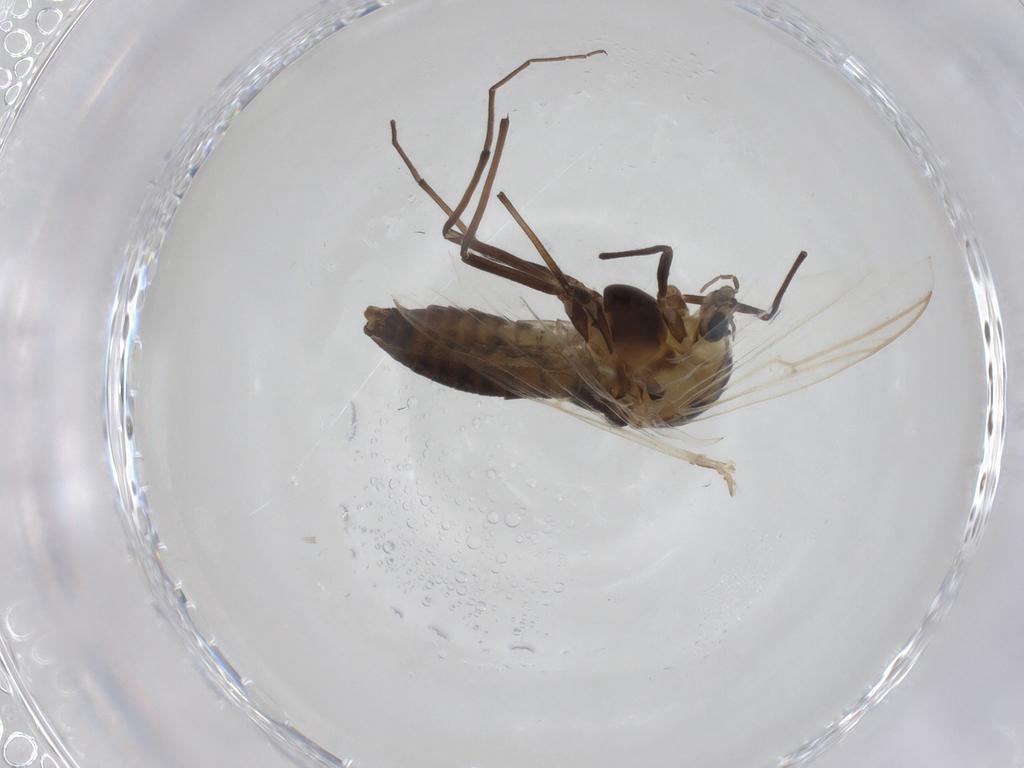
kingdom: Animalia
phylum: Arthropoda
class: Insecta
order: Diptera
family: Chironomidae
